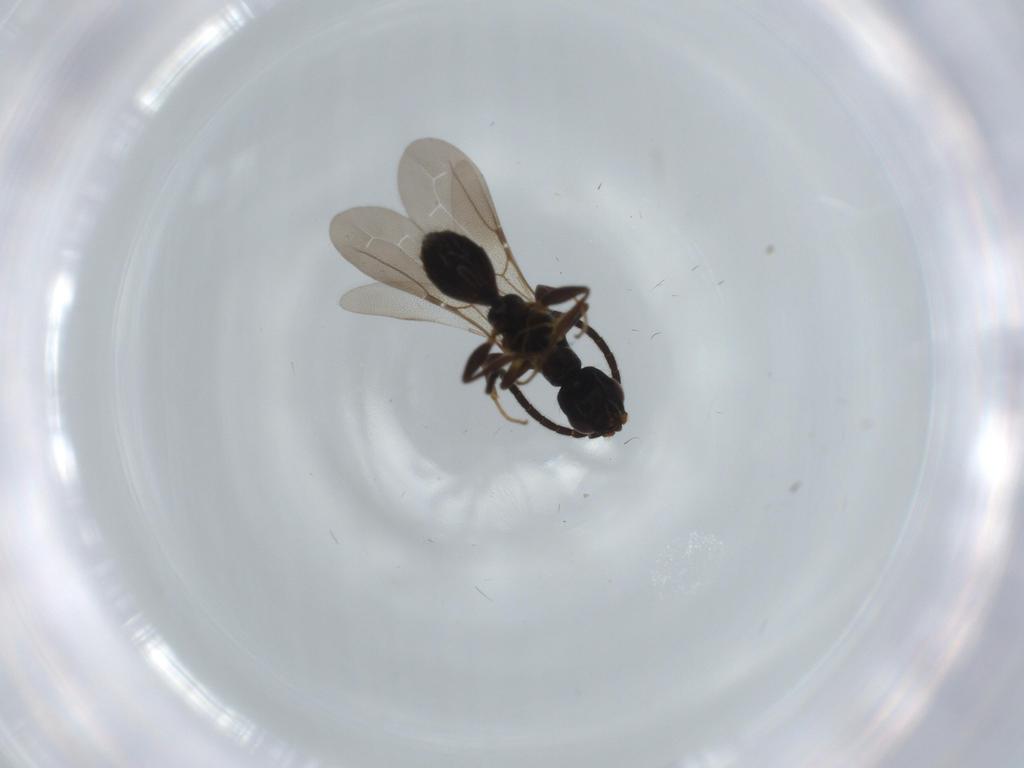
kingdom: Animalia
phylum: Arthropoda
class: Insecta
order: Hymenoptera
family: Bethylidae
